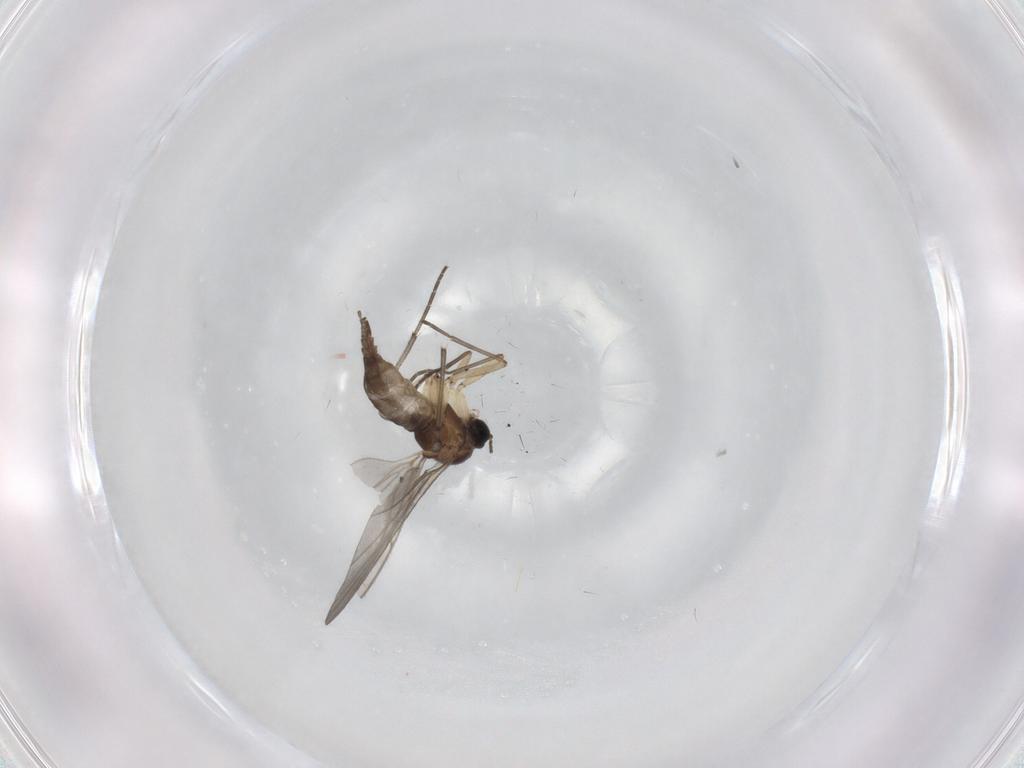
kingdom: Animalia
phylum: Arthropoda
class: Insecta
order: Diptera
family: Sciaridae
